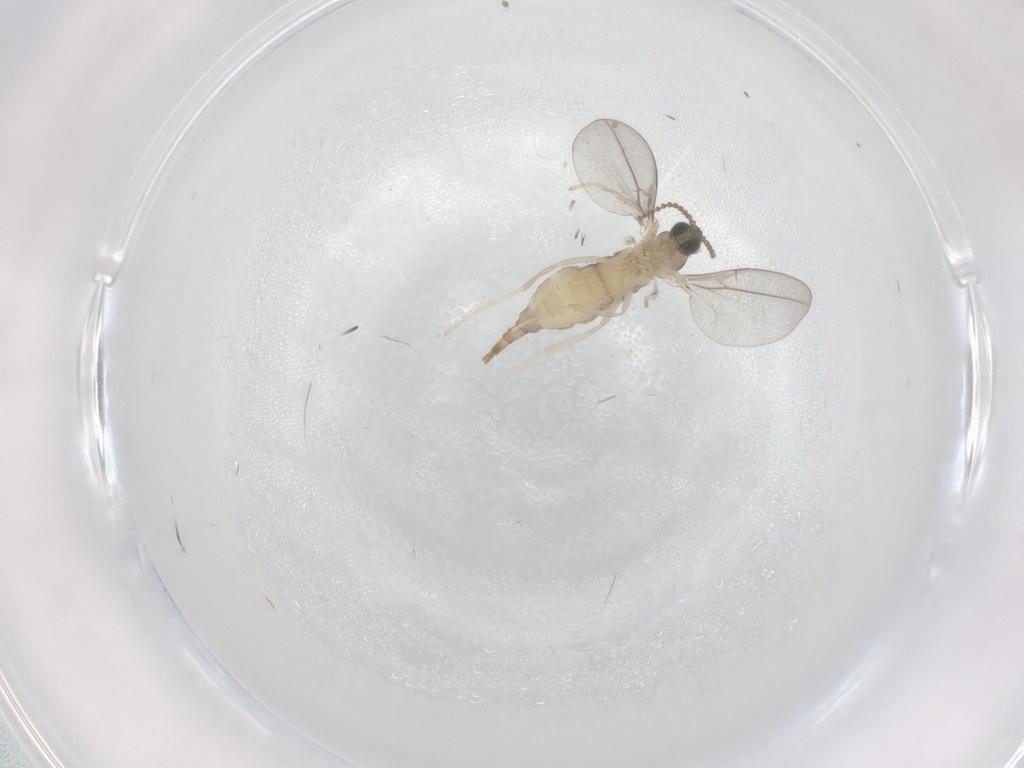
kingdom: Animalia
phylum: Arthropoda
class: Insecta
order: Diptera
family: Cecidomyiidae
